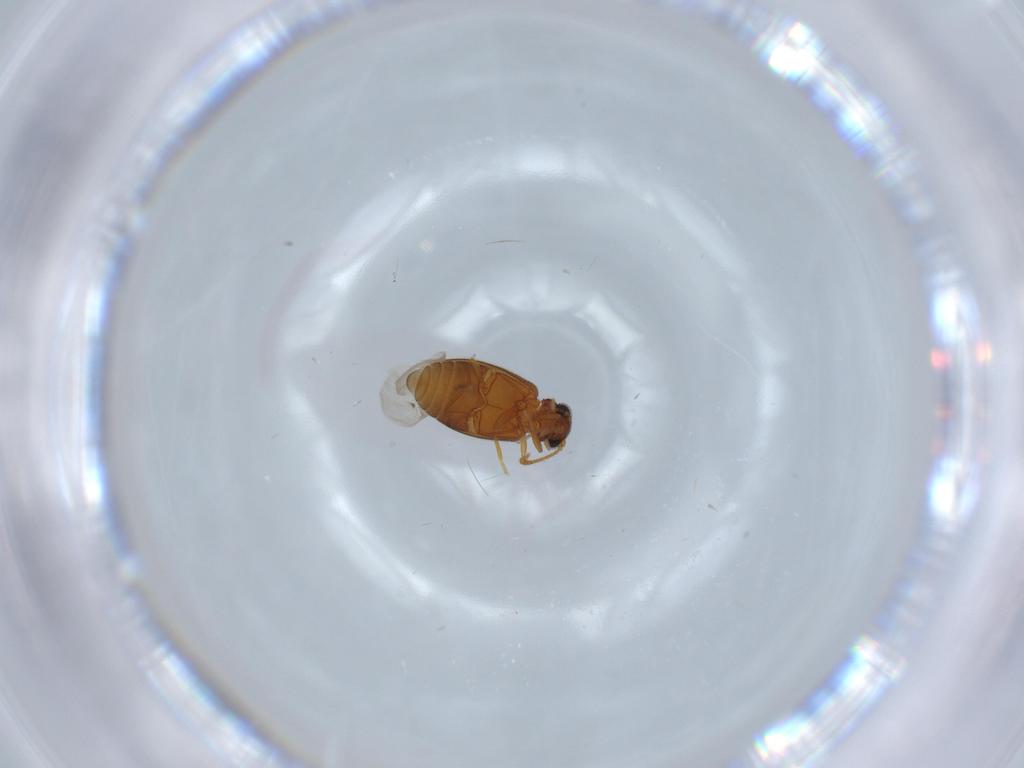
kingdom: Animalia
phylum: Arthropoda
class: Insecta
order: Coleoptera
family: Aderidae
